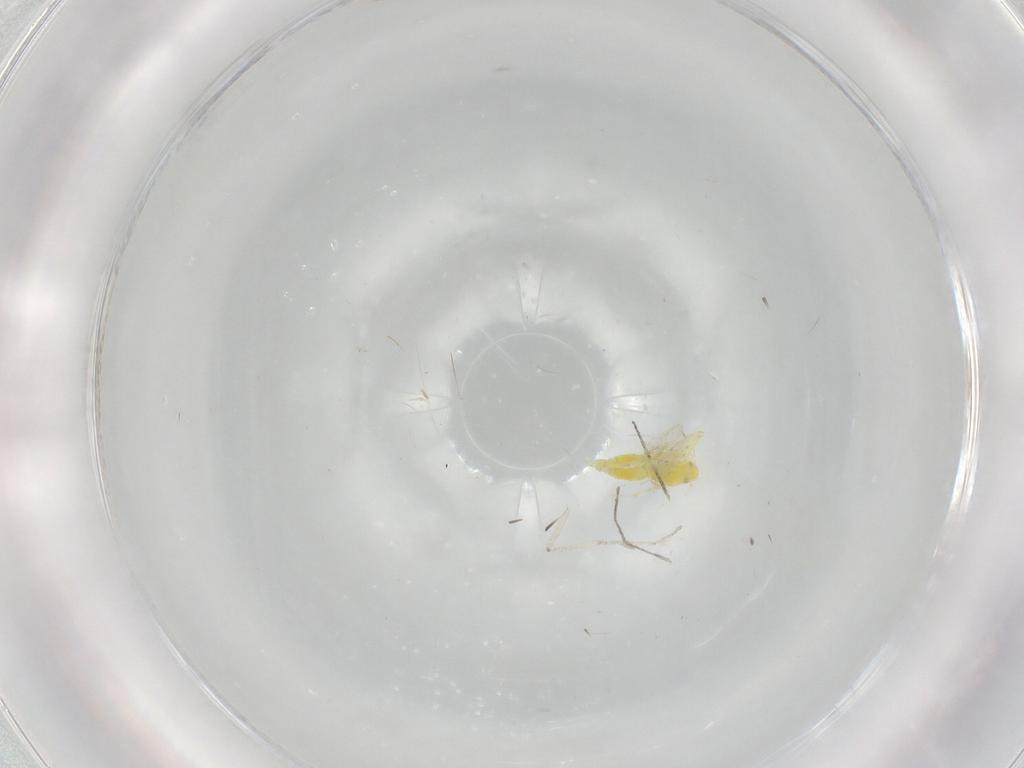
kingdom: Animalia
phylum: Arthropoda
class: Insecta
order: Hemiptera
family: Aleyrodidae
